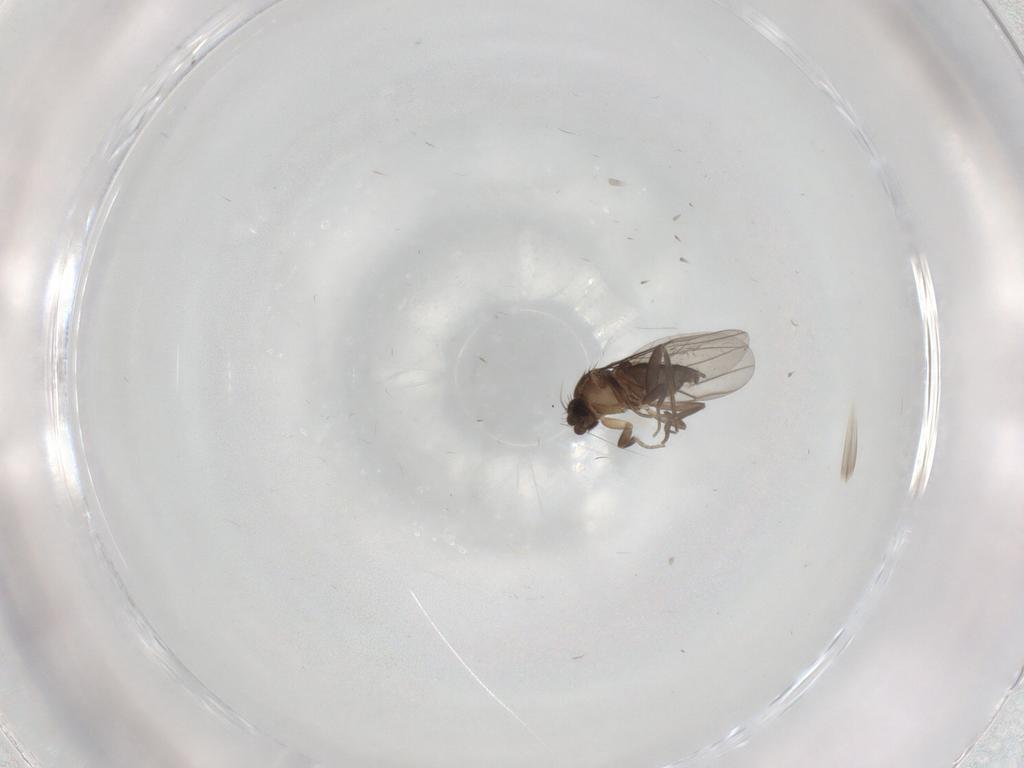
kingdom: Animalia
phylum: Arthropoda
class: Insecta
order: Diptera
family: Phoridae
